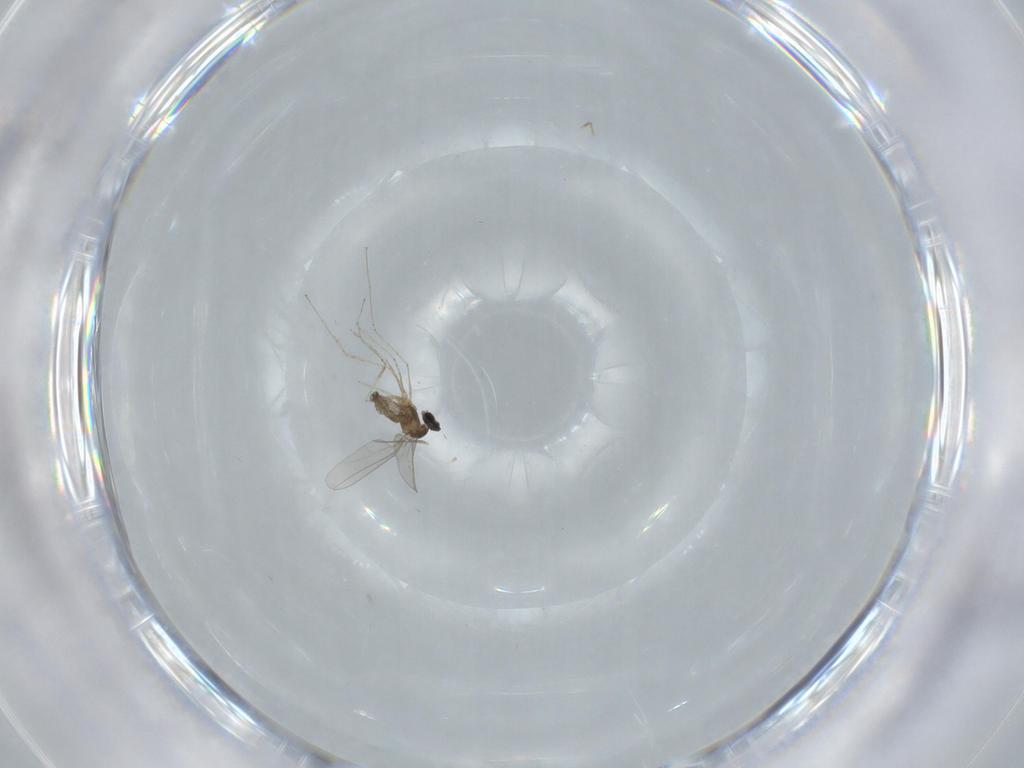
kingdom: Animalia
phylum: Arthropoda
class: Insecta
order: Diptera
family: Cecidomyiidae
